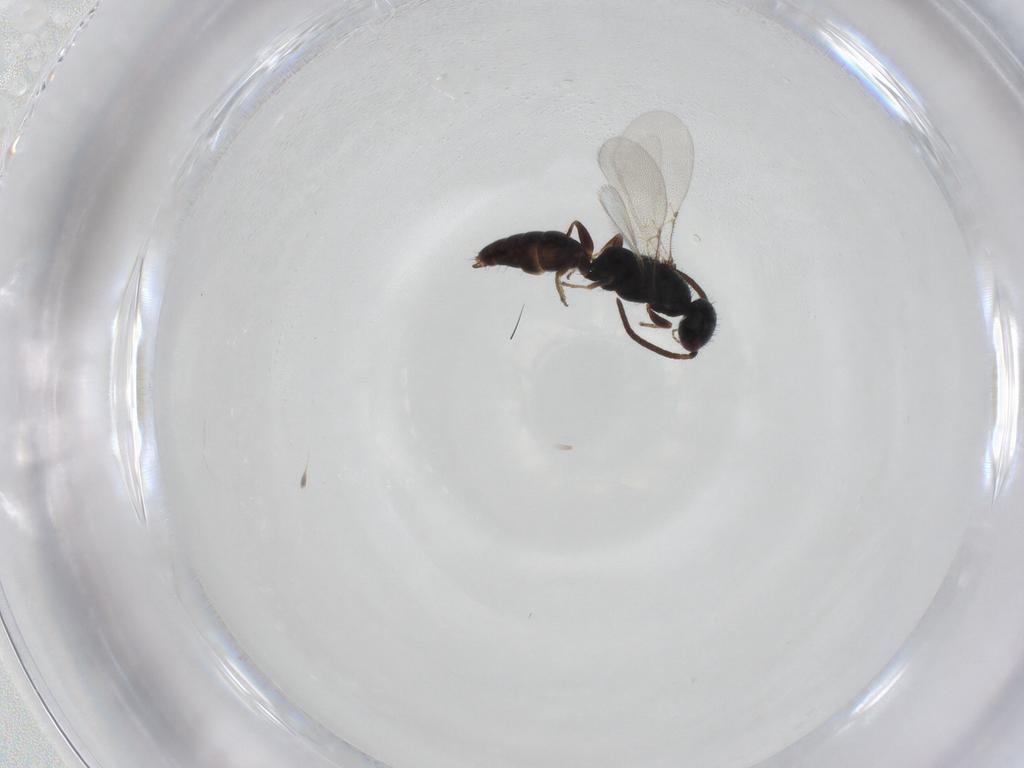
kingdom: Animalia
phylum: Arthropoda
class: Insecta
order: Hymenoptera
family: Bethylidae
